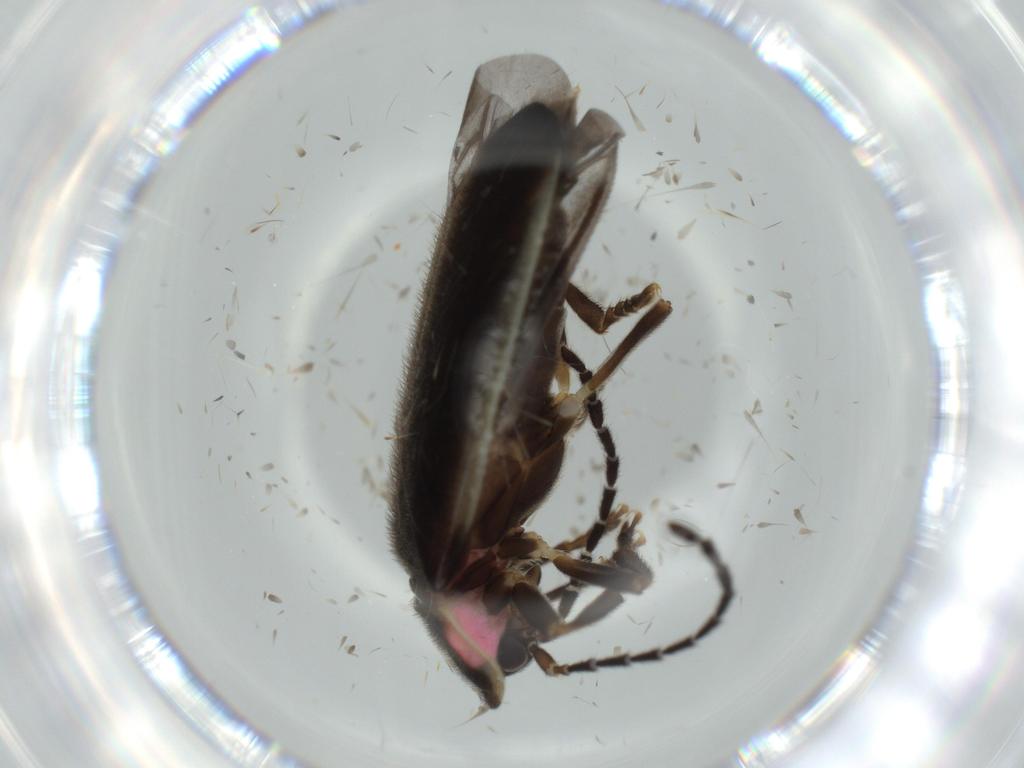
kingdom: Animalia
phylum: Arthropoda
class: Insecta
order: Coleoptera
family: Lampyridae
